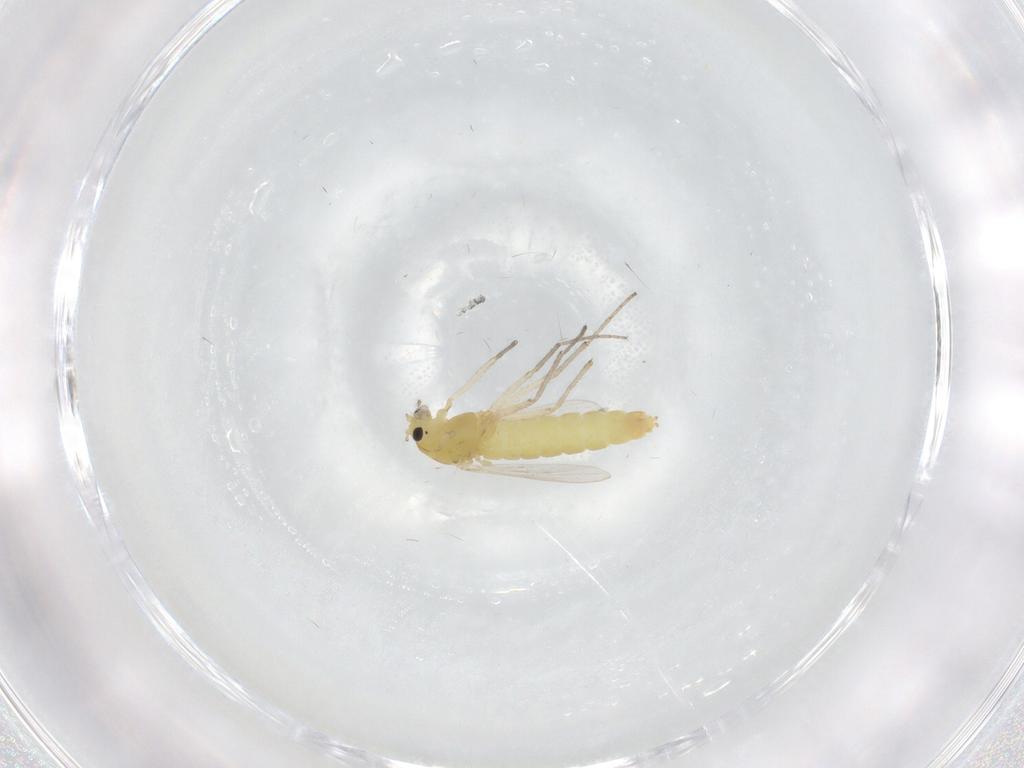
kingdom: Animalia
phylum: Arthropoda
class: Insecta
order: Diptera
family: Chironomidae
